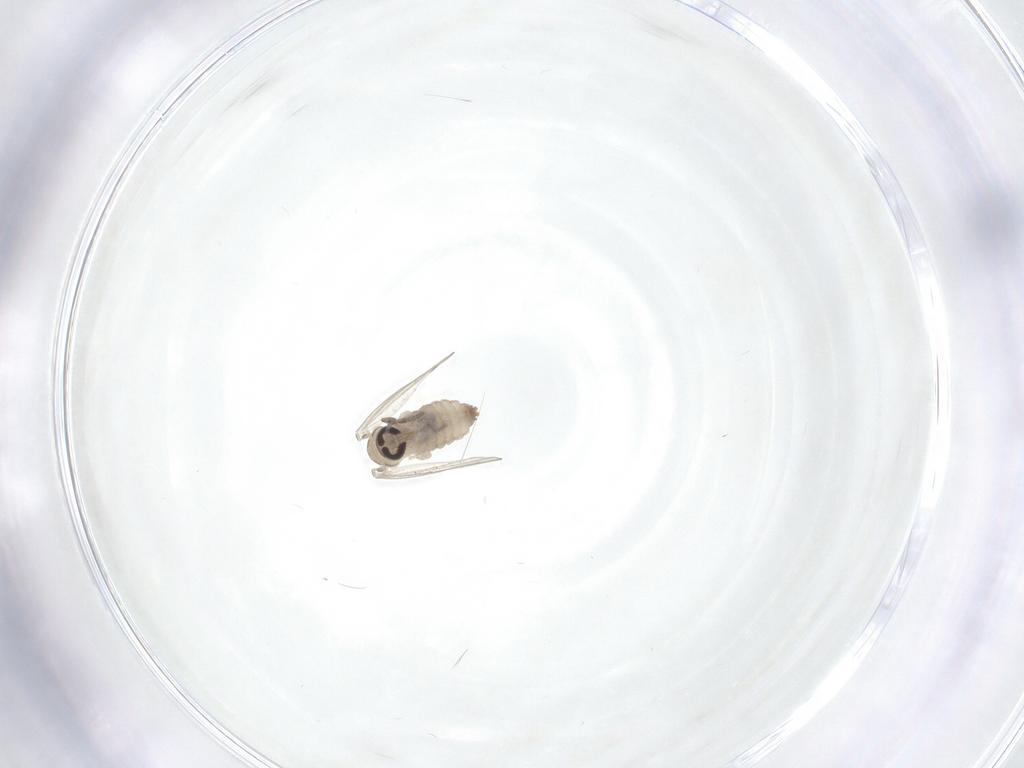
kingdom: Animalia
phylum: Arthropoda
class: Insecta
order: Diptera
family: Psychodidae
